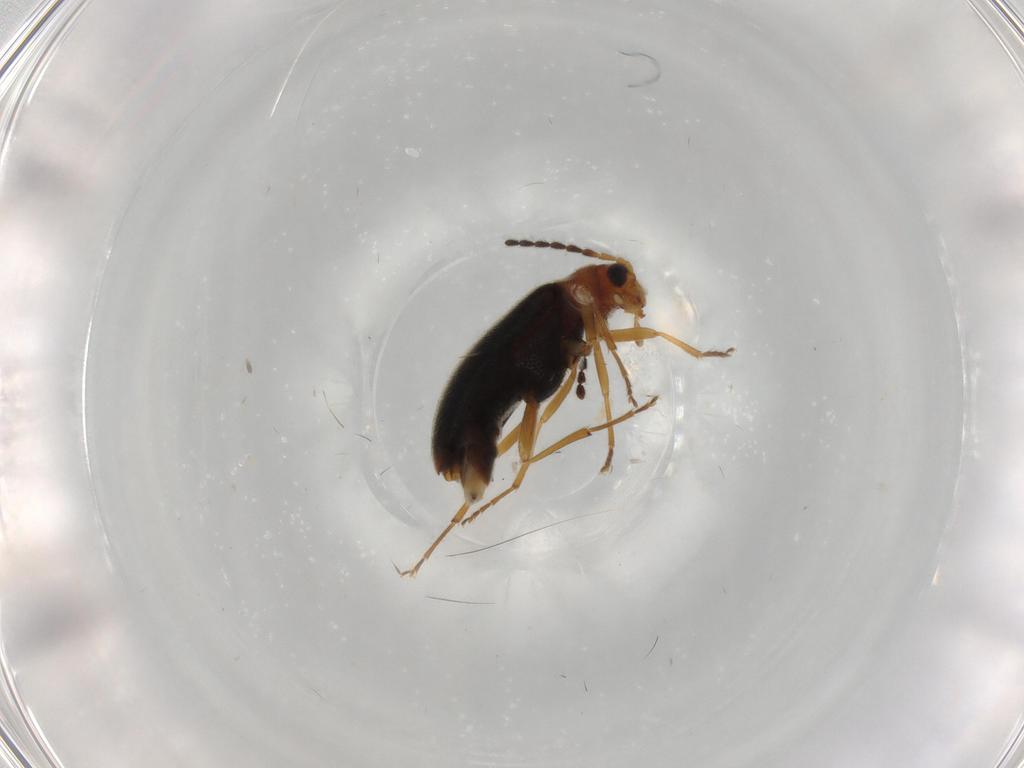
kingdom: Animalia
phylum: Arthropoda
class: Insecta
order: Coleoptera
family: Melandryidae
